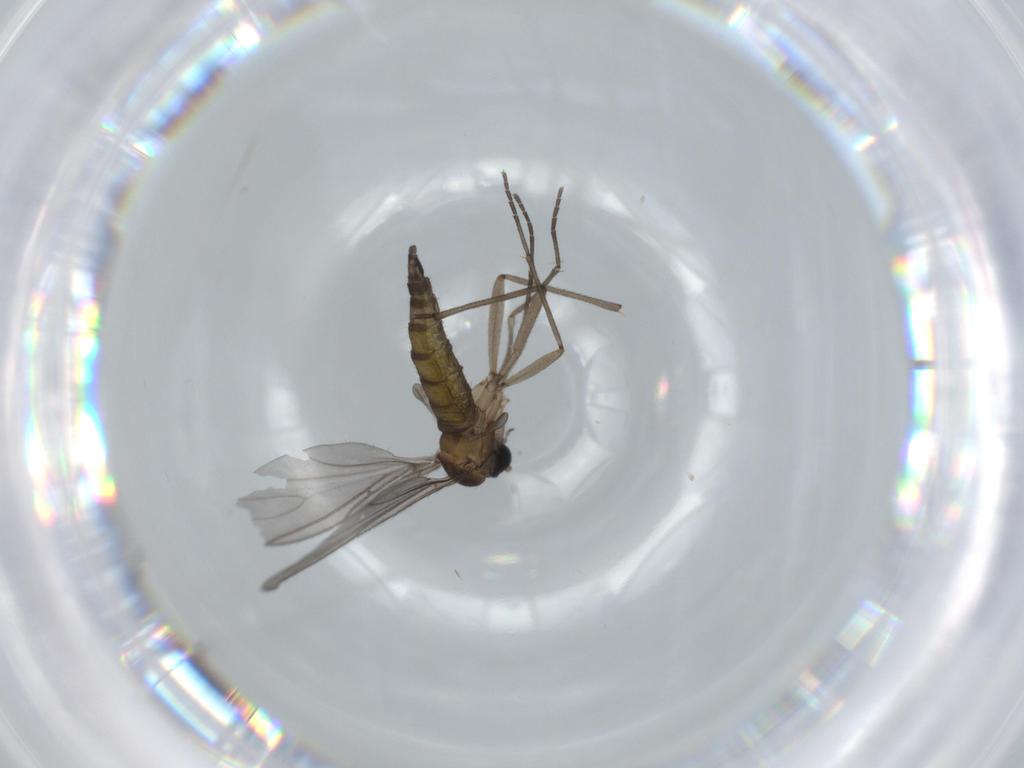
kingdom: Animalia
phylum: Arthropoda
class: Insecta
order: Diptera
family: Sciaridae
